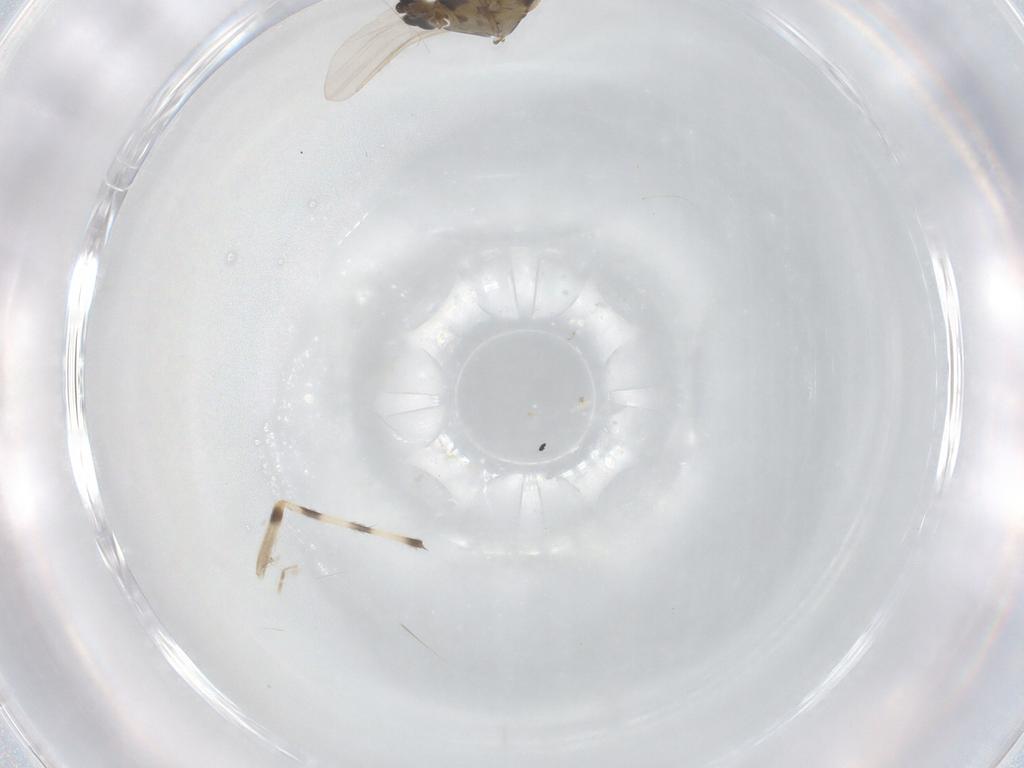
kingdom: Animalia
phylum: Arthropoda
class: Insecta
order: Diptera
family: Chironomidae
